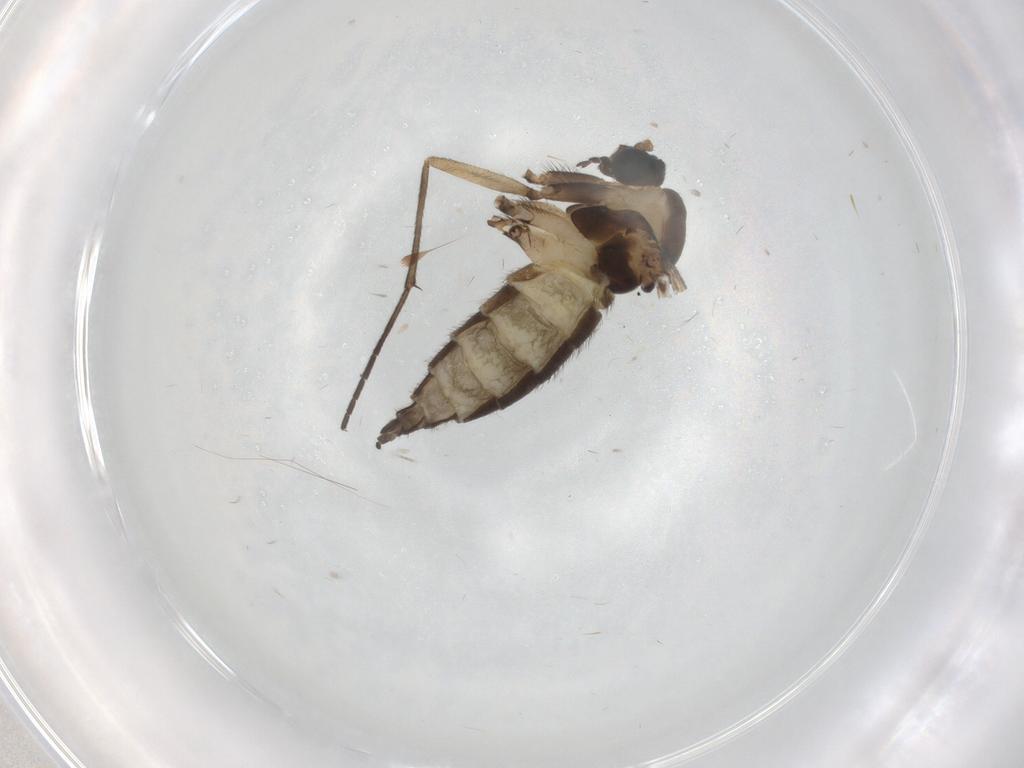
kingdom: Animalia
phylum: Arthropoda
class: Insecta
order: Diptera
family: Sciaridae
